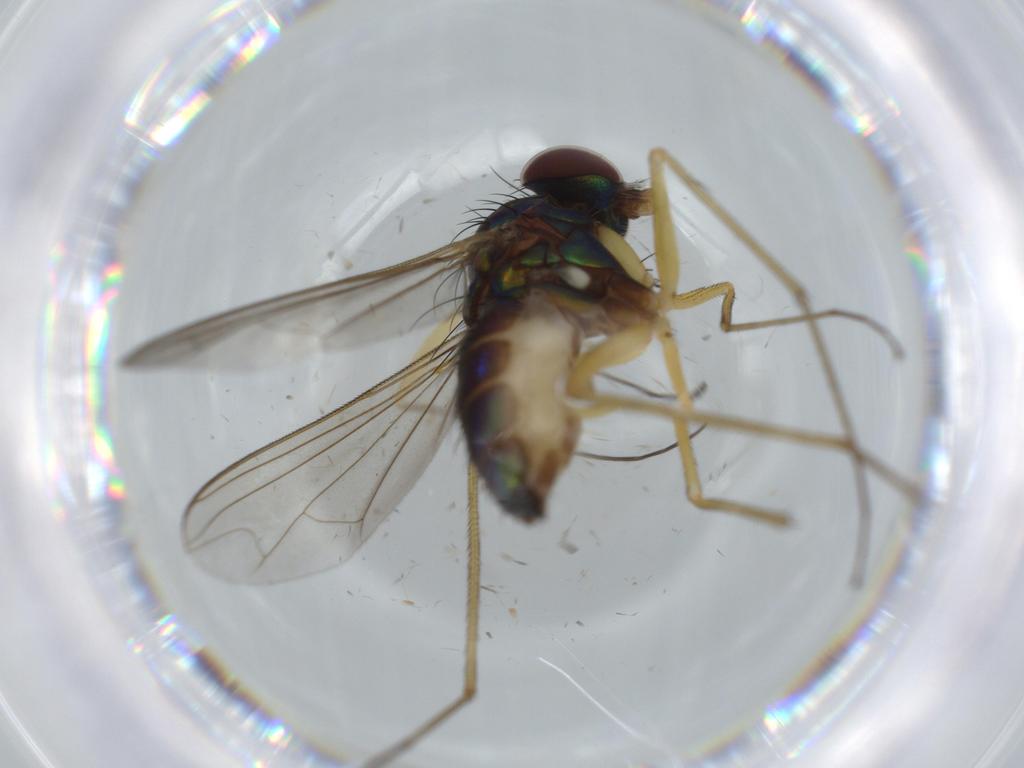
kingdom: Animalia
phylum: Arthropoda
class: Insecta
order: Diptera
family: Dolichopodidae
